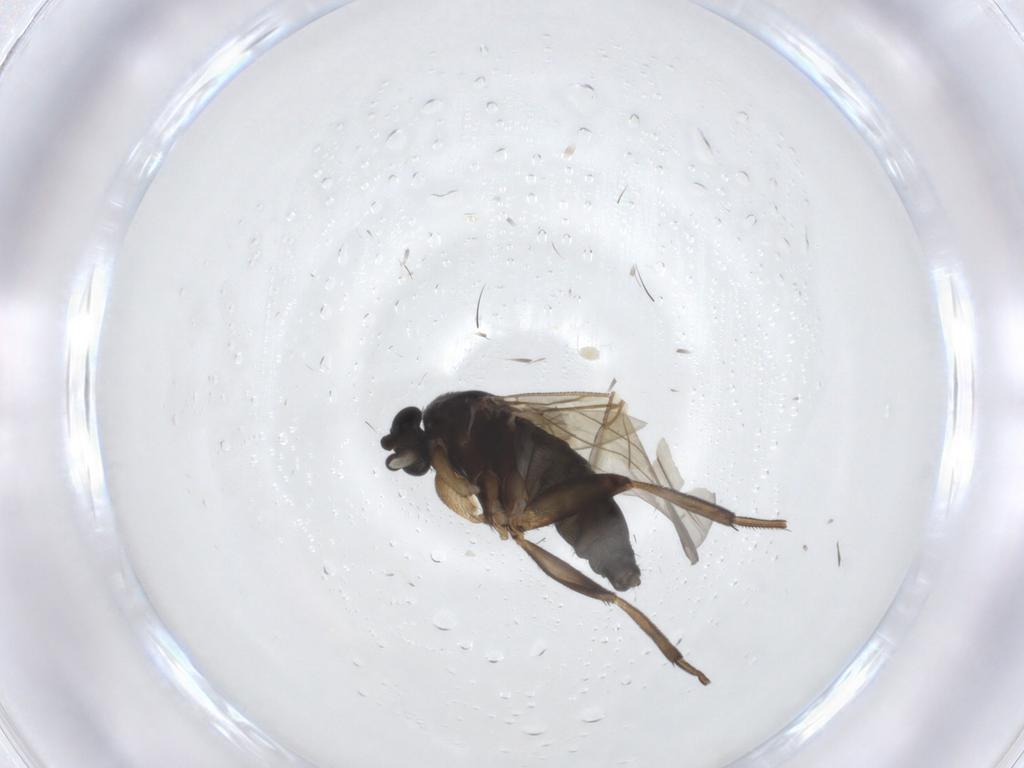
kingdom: Animalia
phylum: Arthropoda
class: Insecta
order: Diptera
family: Phoridae
